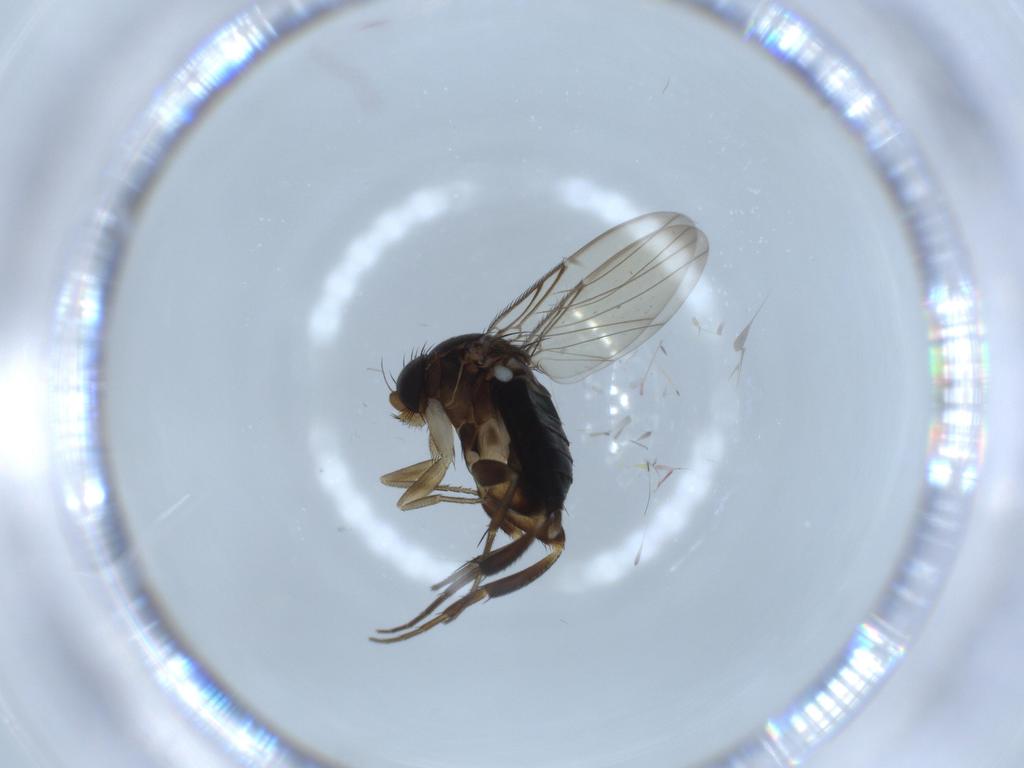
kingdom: Animalia
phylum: Arthropoda
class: Insecta
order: Diptera
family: Phoridae
